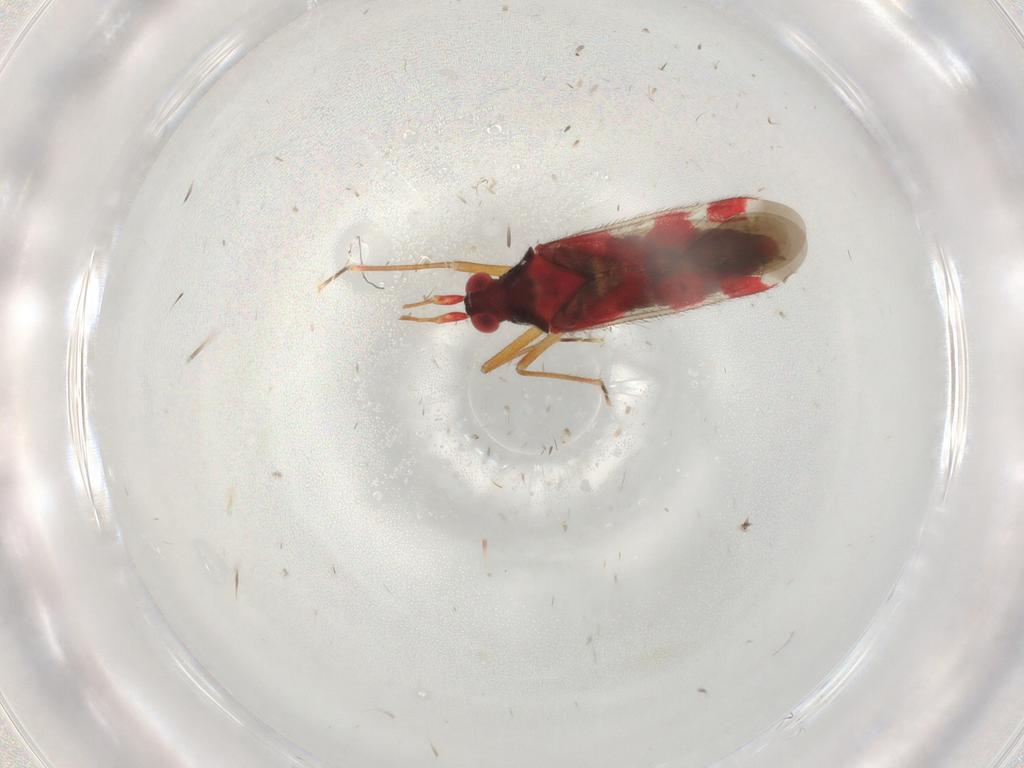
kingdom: Animalia
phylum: Arthropoda
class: Insecta
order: Hemiptera
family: Miridae
